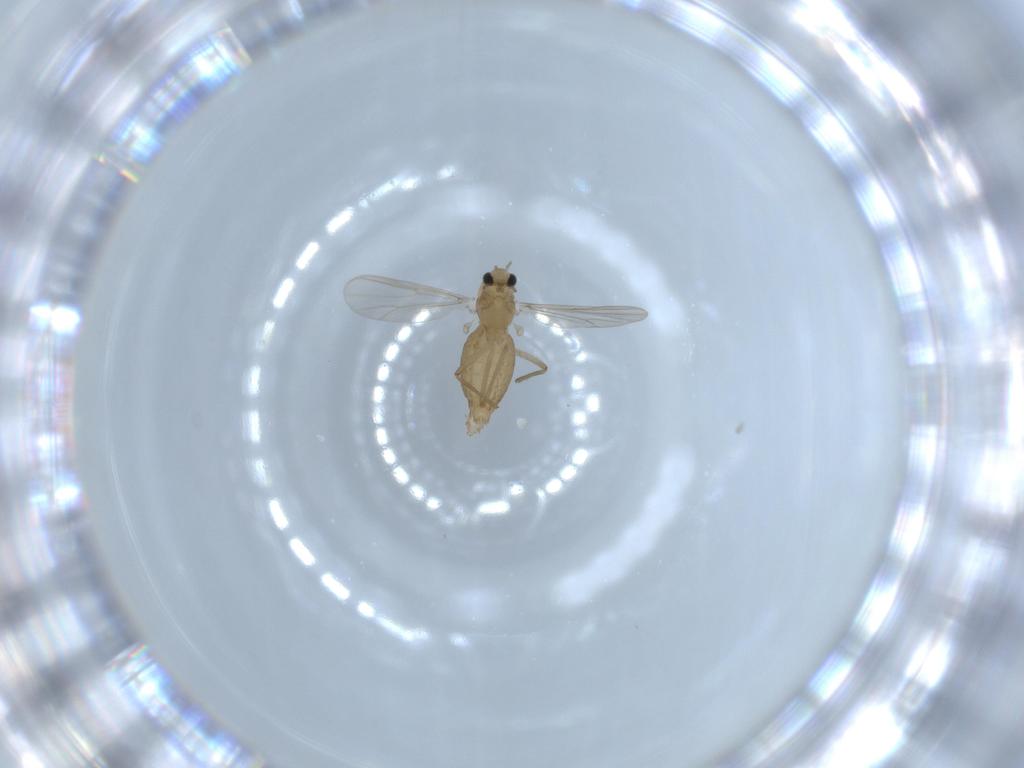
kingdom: Animalia
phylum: Arthropoda
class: Insecta
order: Diptera
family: Chironomidae
